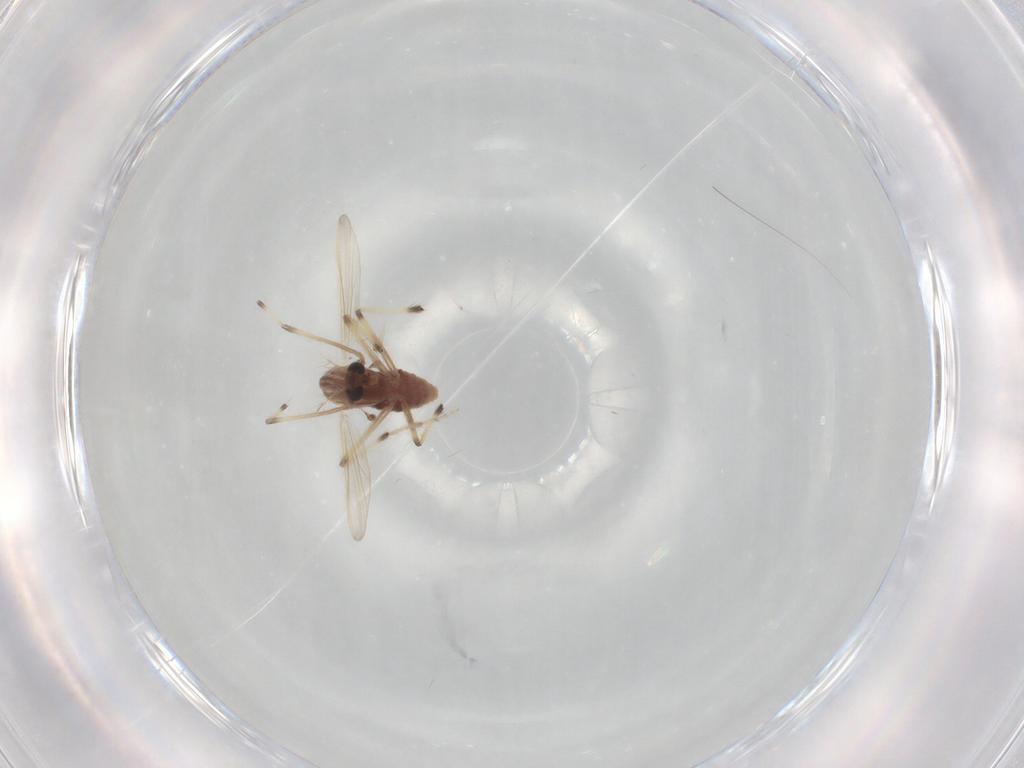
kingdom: Animalia
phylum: Arthropoda
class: Insecta
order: Diptera
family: Chironomidae
